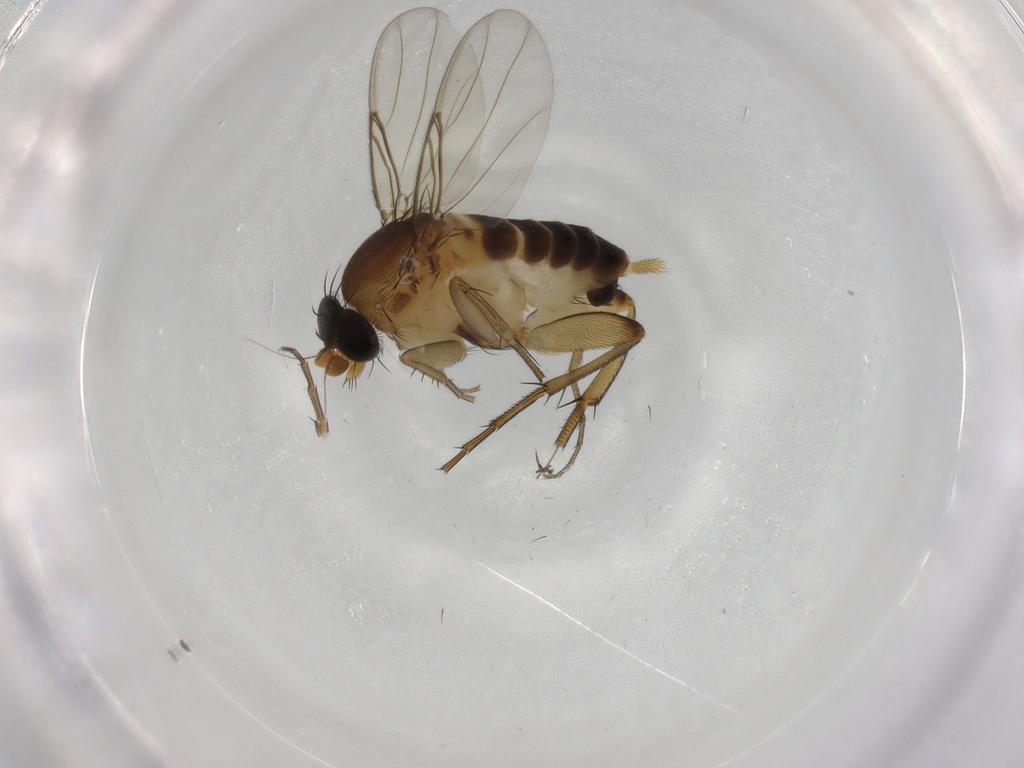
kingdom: Animalia
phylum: Arthropoda
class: Insecta
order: Diptera
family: Phoridae
